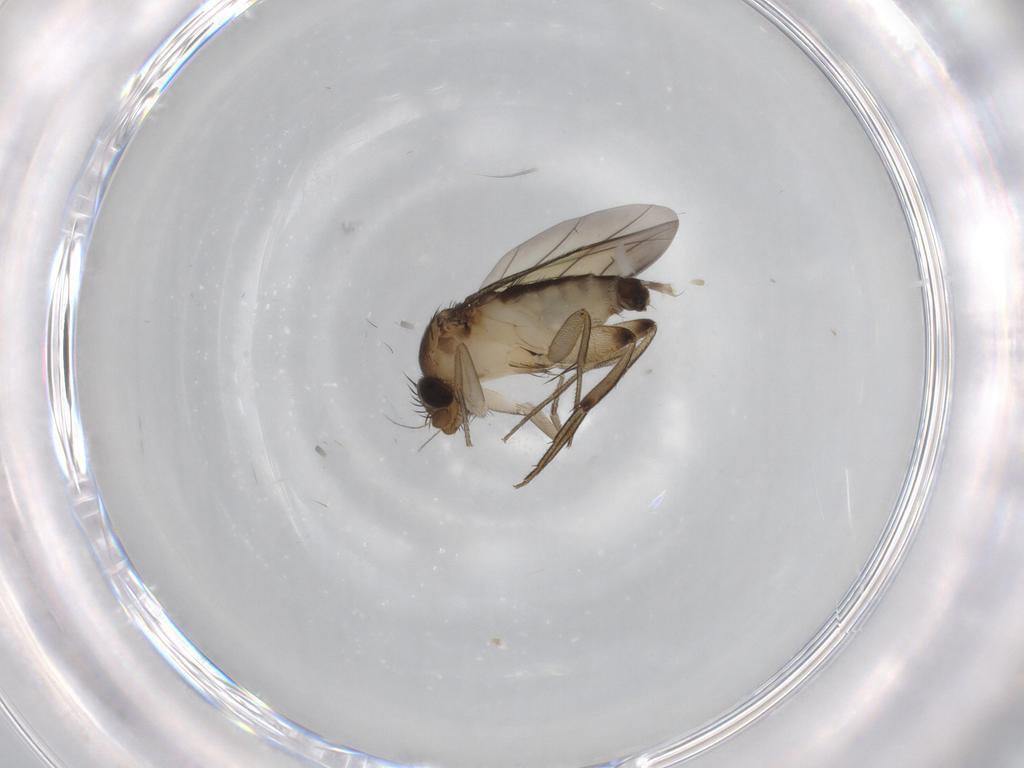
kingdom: Animalia
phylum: Arthropoda
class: Insecta
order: Diptera
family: Phoridae
